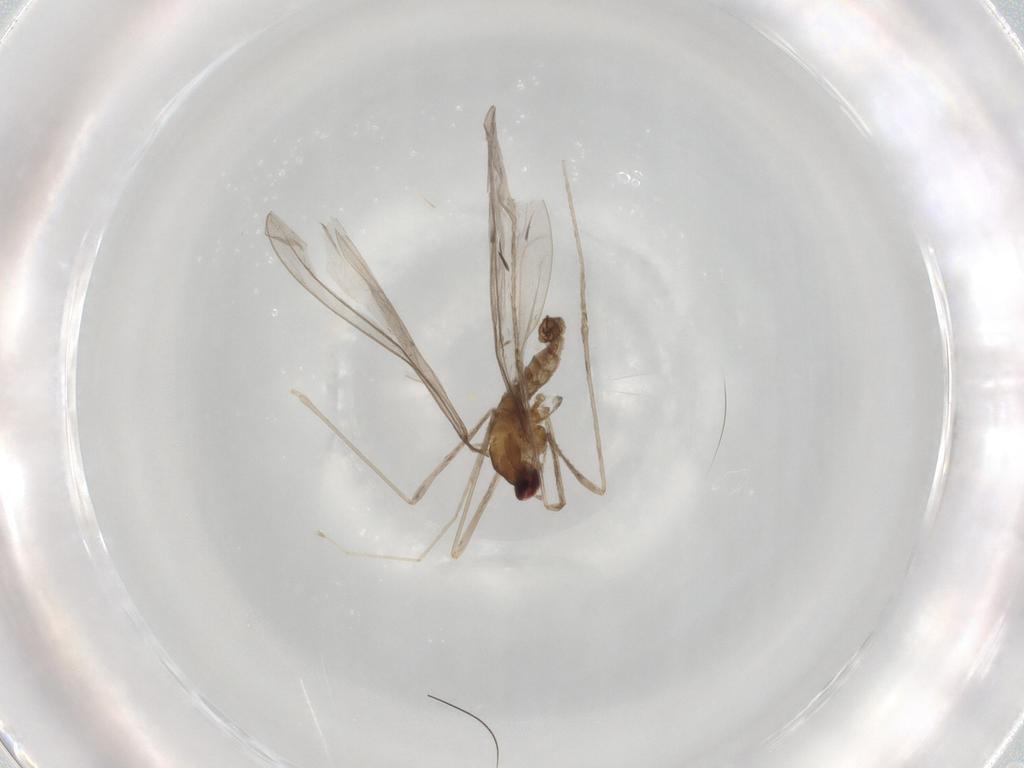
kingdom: Animalia
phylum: Arthropoda
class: Insecta
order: Diptera
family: Cecidomyiidae
